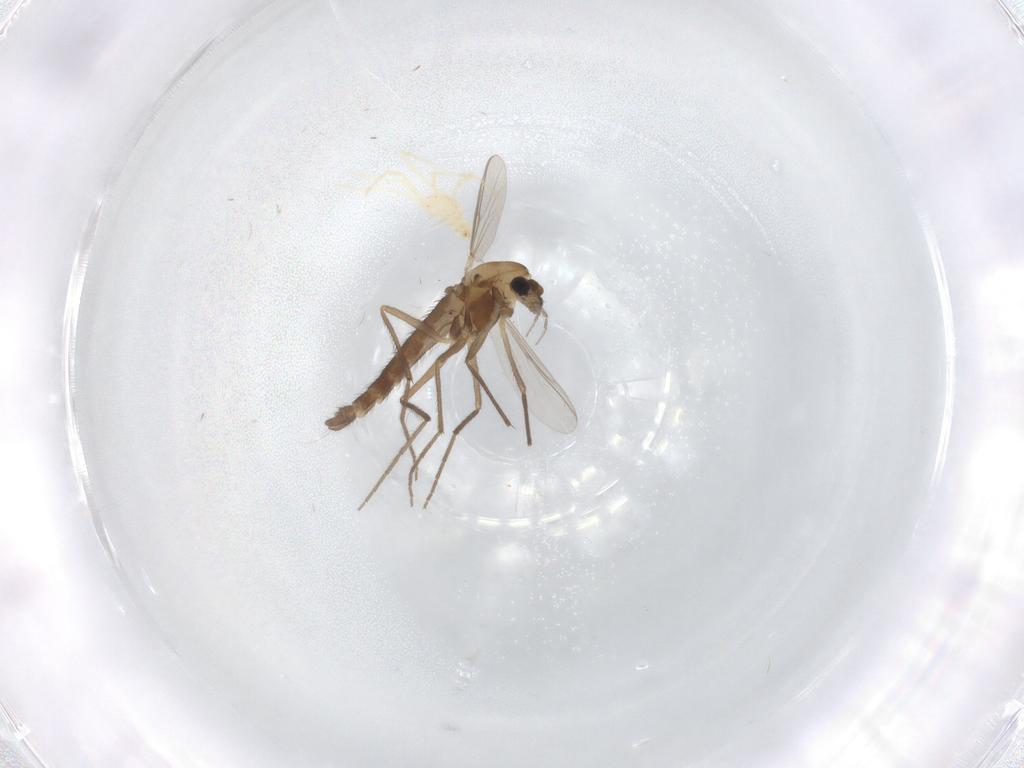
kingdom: Animalia
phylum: Arthropoda
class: Insecta
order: Diptera
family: Chironomidae
